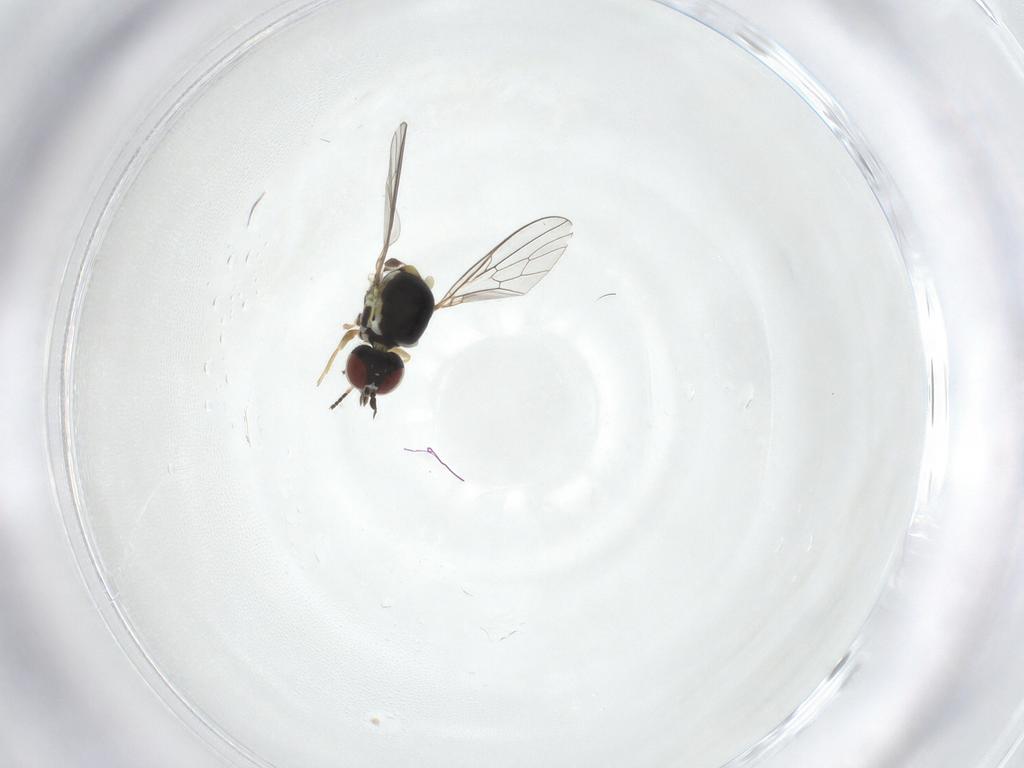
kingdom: Animalia
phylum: Arthropoda
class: Insecta
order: Diptera
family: Mythicomyiidae
